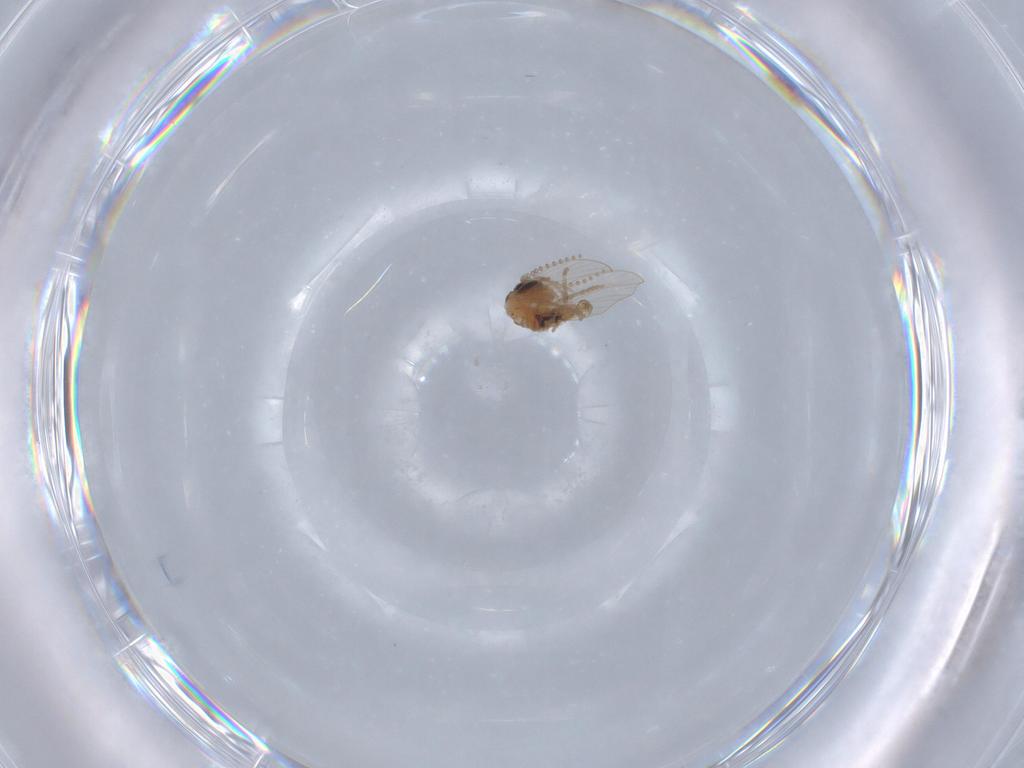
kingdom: Animalia
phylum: Arthropoda
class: Insecta
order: Diptera
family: Psychodidae
